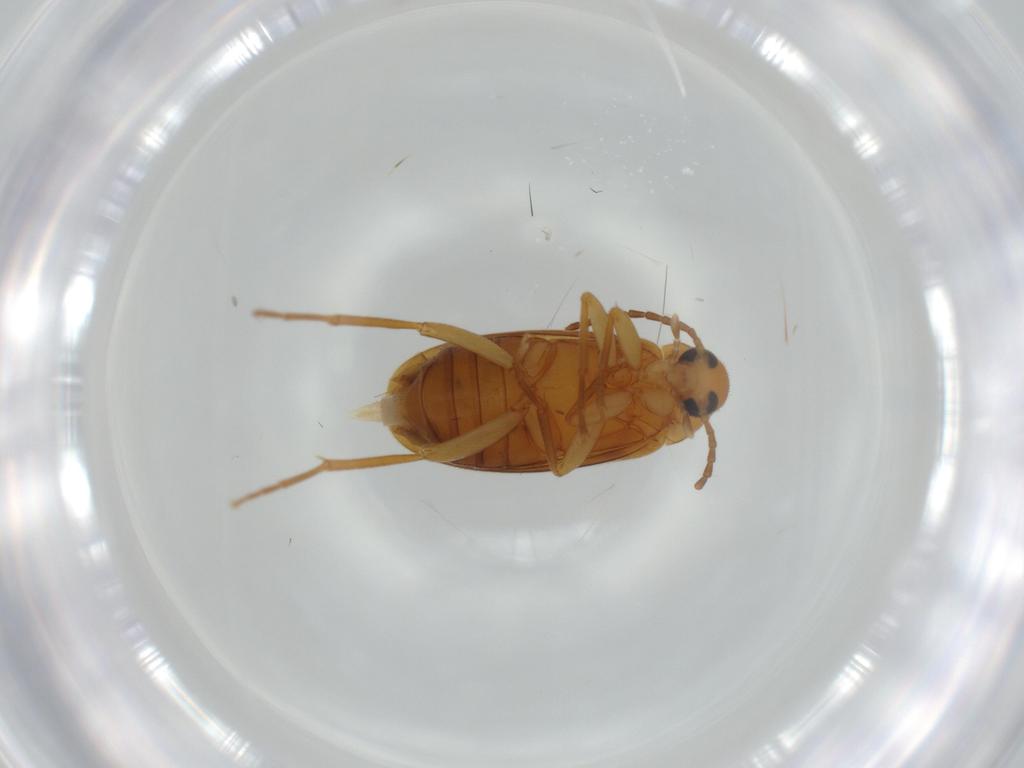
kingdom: Animalia
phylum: Arthropoda
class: Insecta
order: Coleoptera
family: Scraptiidae
